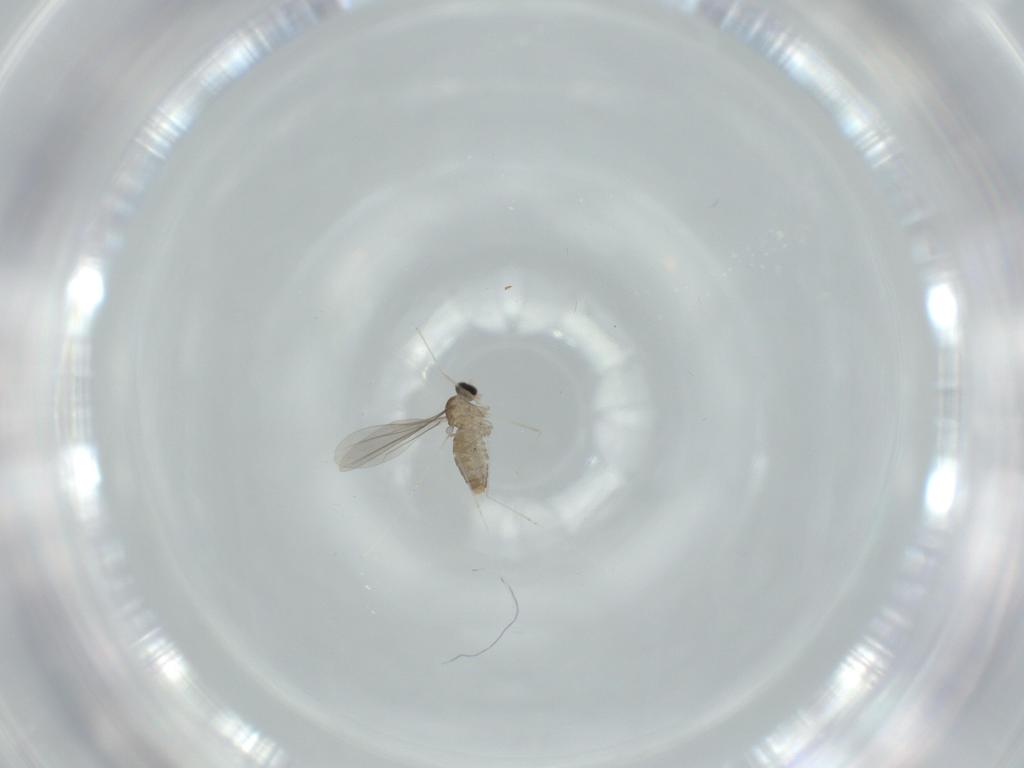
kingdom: Animalia
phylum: Arthropoda
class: Insecta
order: Diptera
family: Cecidomyiidae
